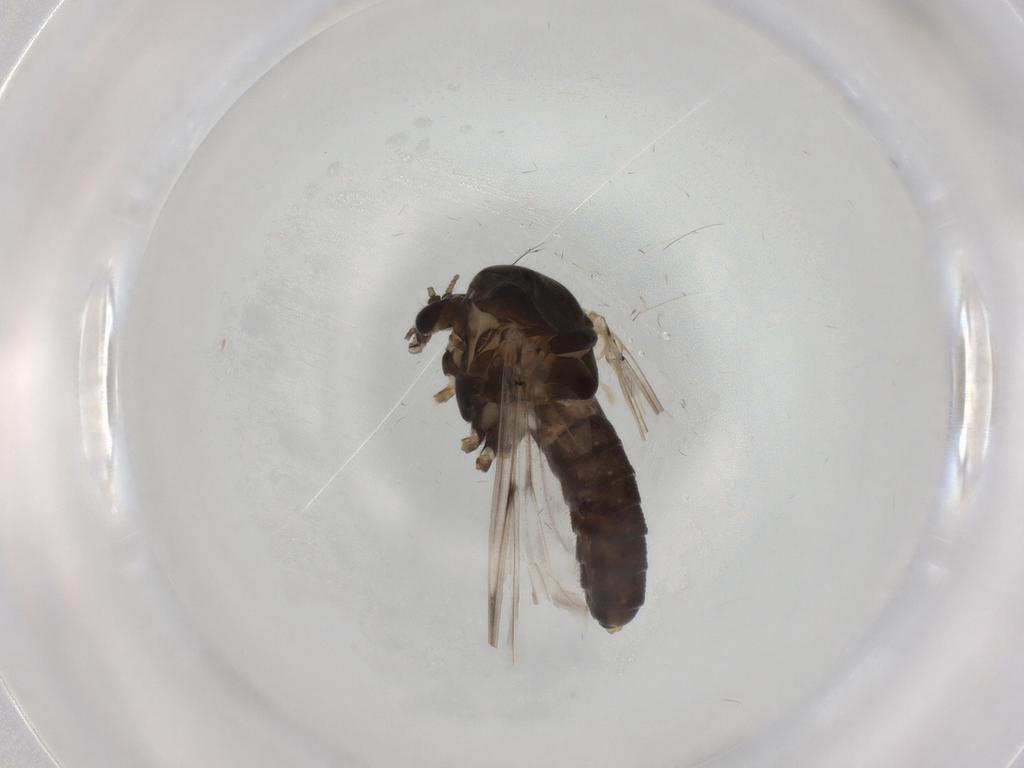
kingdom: Animalia
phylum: Arthropoda
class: Insecta
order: Diptera
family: Chironomidae
